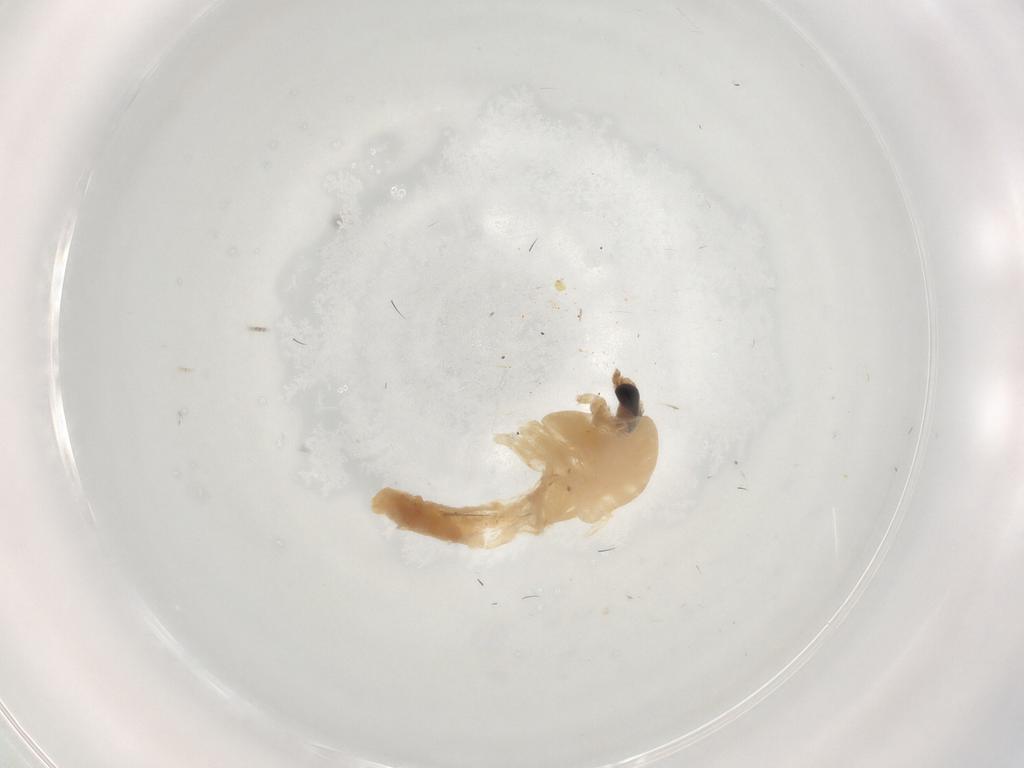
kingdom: Animalia
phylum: Arthropoda
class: Insecta
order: Diptera
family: Chironomidae
